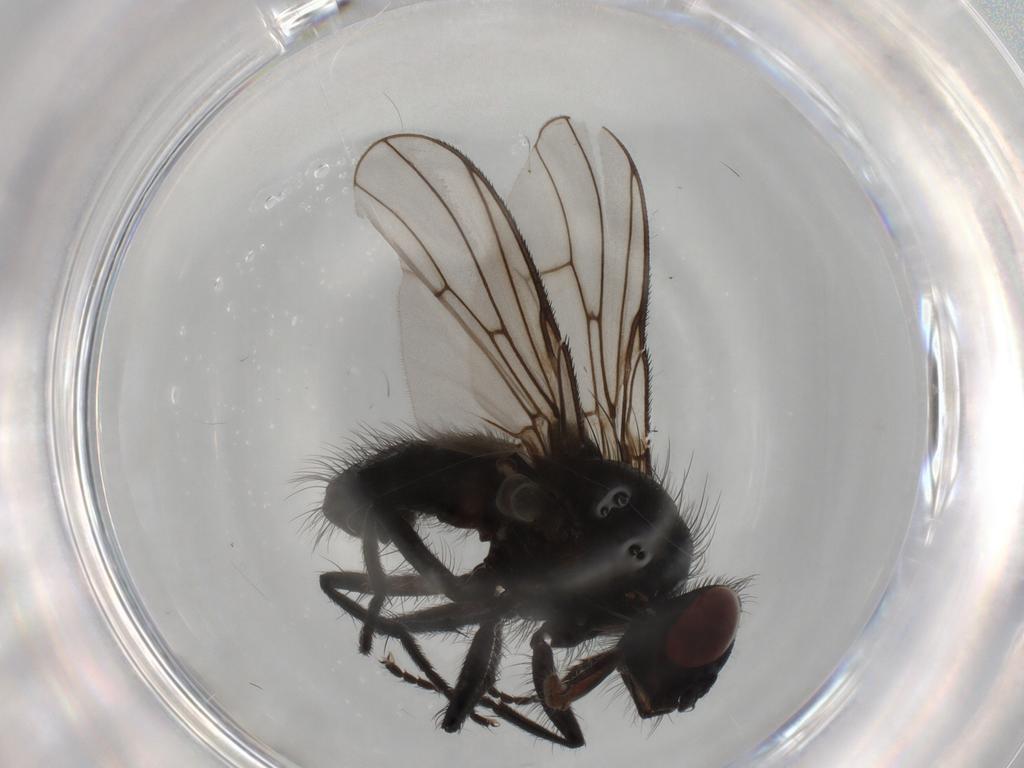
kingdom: Animalia
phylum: Arthropoda
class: Insecta
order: Diptera
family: Muscidae
